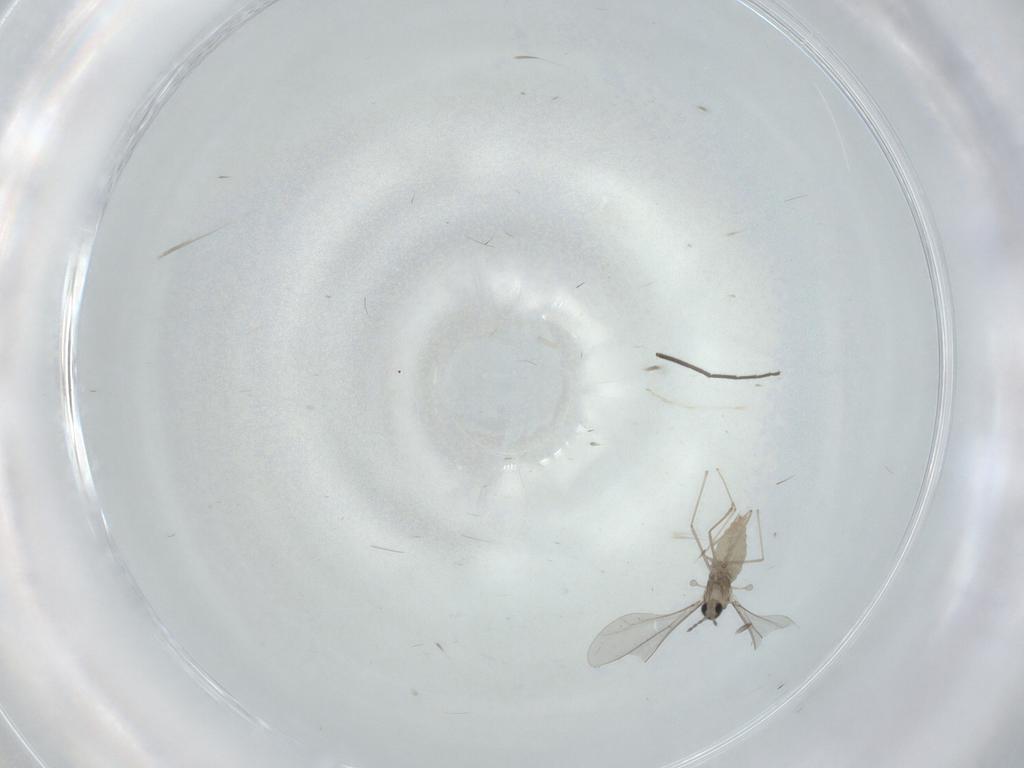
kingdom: Animalia
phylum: Arthropoda
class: Insecta
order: Diptera
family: Cecidomyiidae
